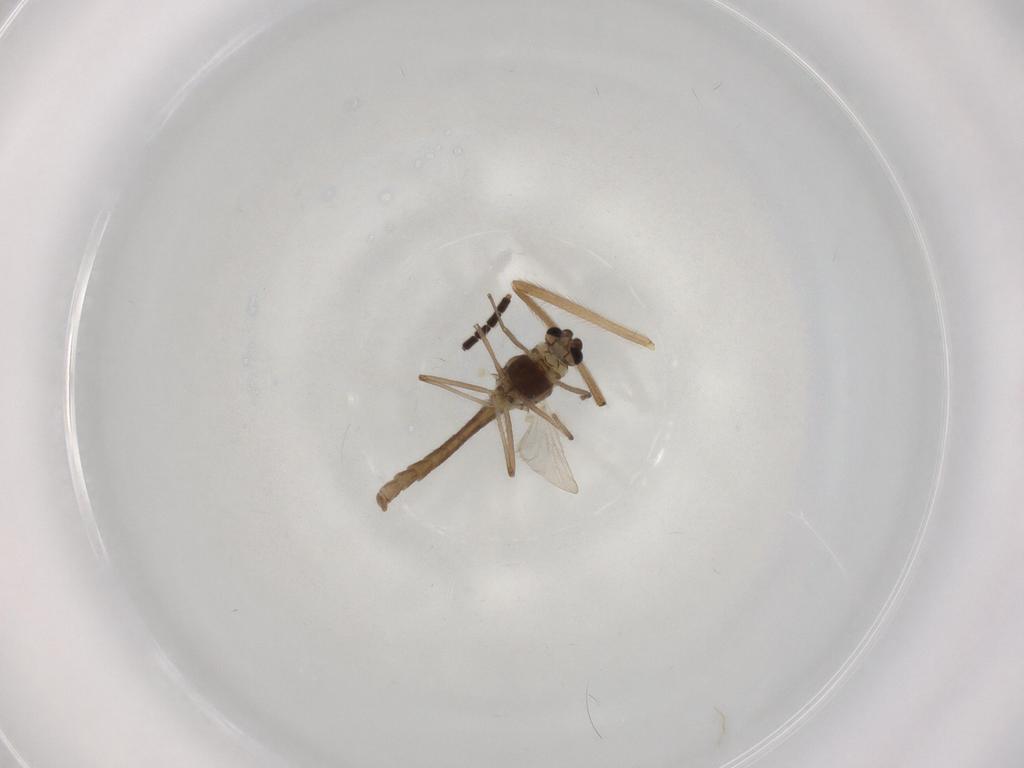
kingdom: Animalia
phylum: Arthropoda
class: Insecta
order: Diptera
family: Chironomidae
